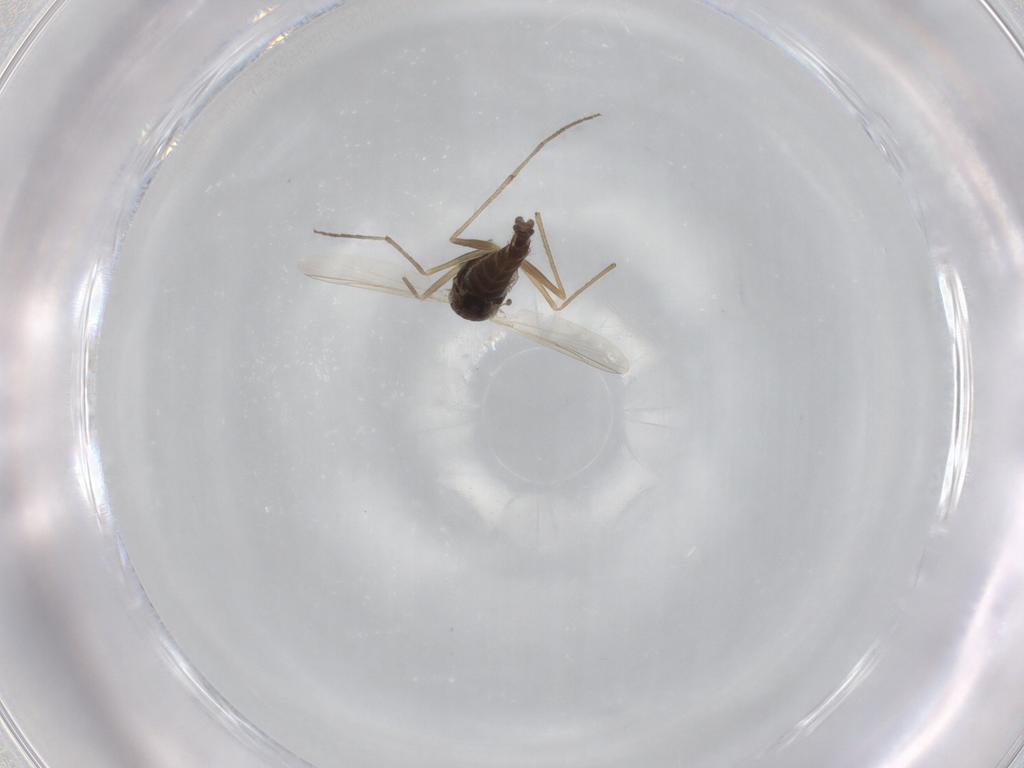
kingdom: Animalia
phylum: Arthropoda
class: Insecta
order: Diptera
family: Chironomidae
